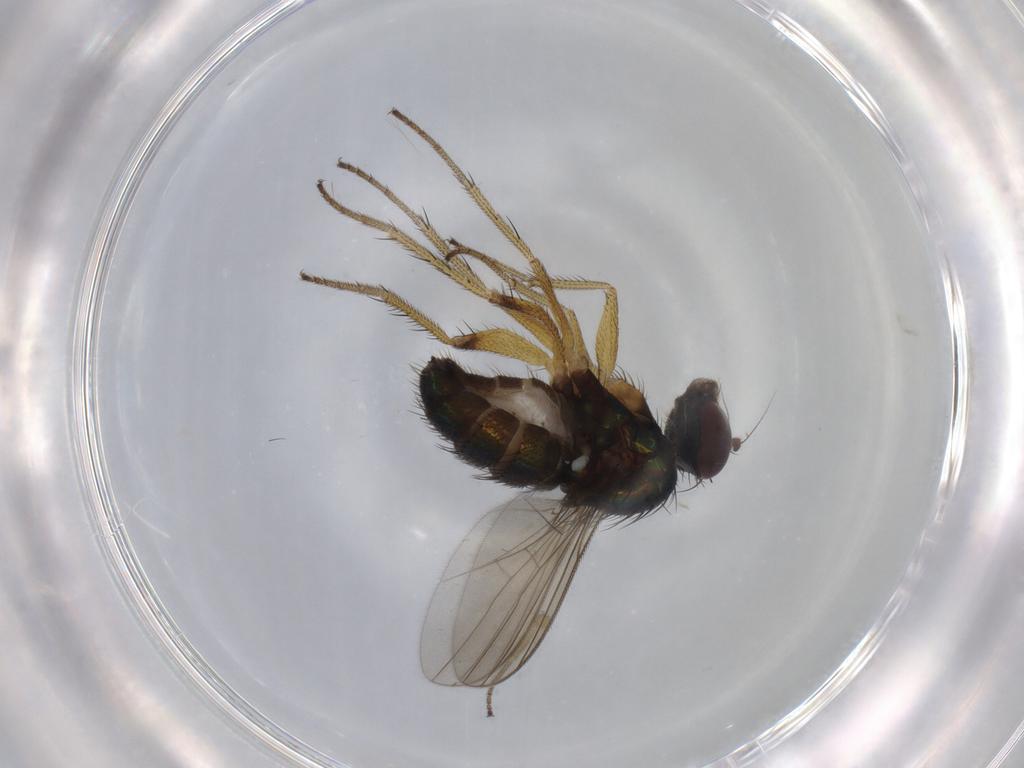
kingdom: Animalia
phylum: Arthropoda
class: Insecta
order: Diptera
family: Dolichopodidae
